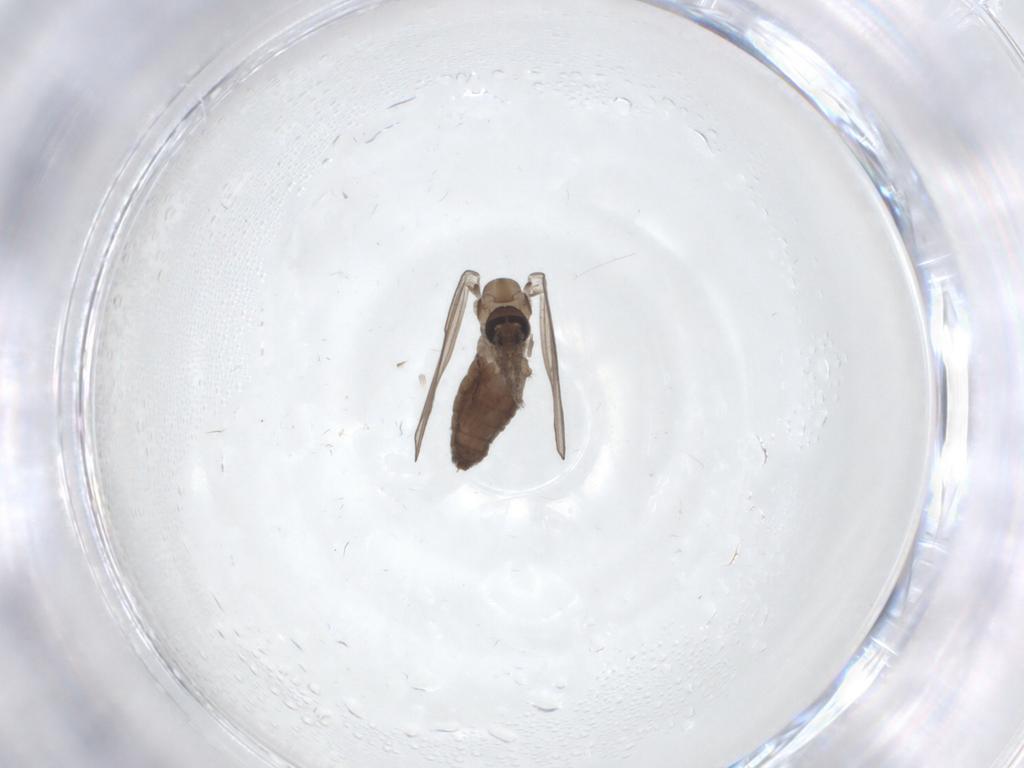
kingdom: Animalia
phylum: Arthropoda
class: Insecta
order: Diptera
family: Psychodidae
